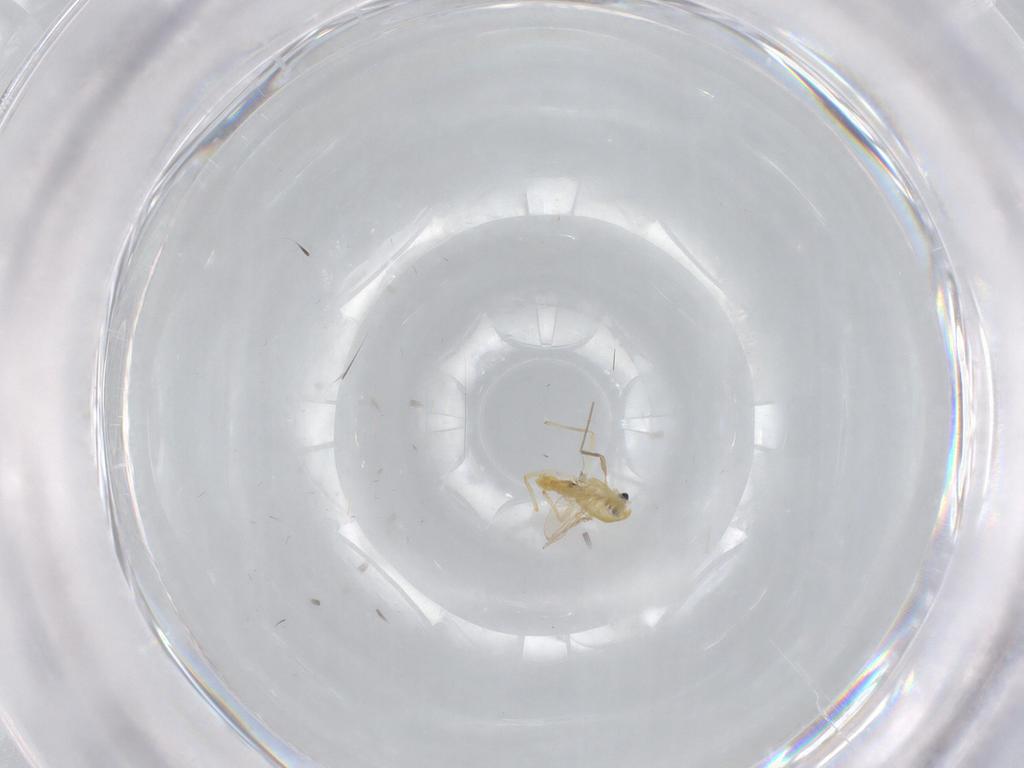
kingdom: Animalia
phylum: Arthropoda
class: Insecta
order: Diptera
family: Chironomidae
